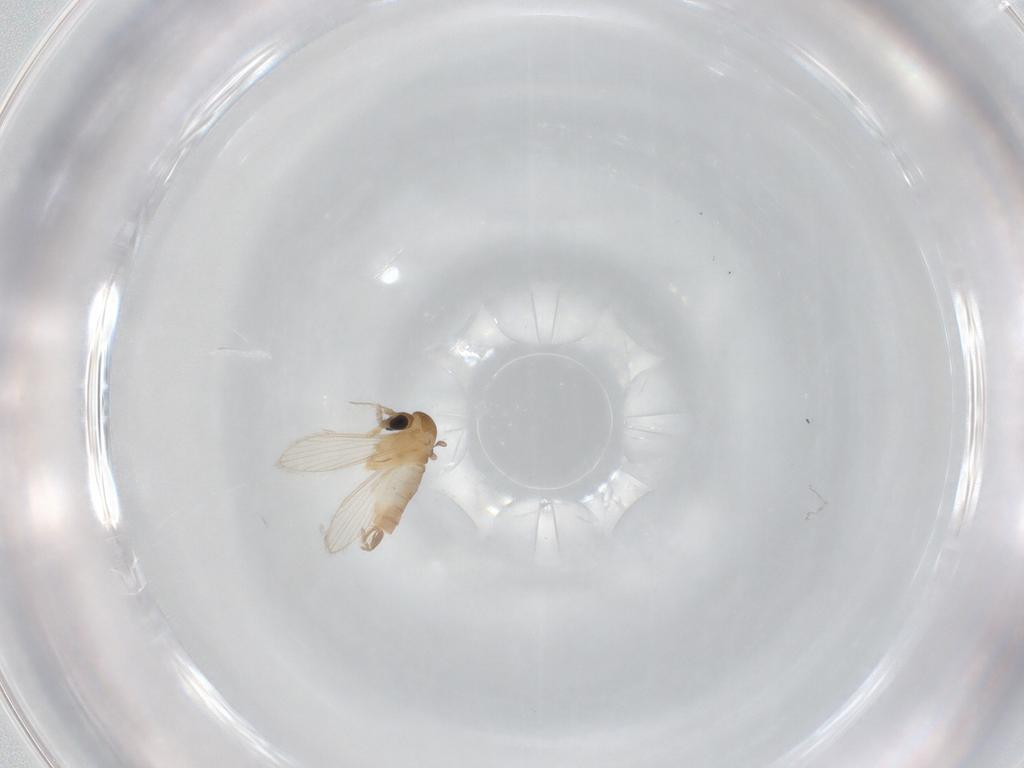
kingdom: Animalia
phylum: Arthropoda
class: Insecta
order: Diptera
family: Psychodidae
